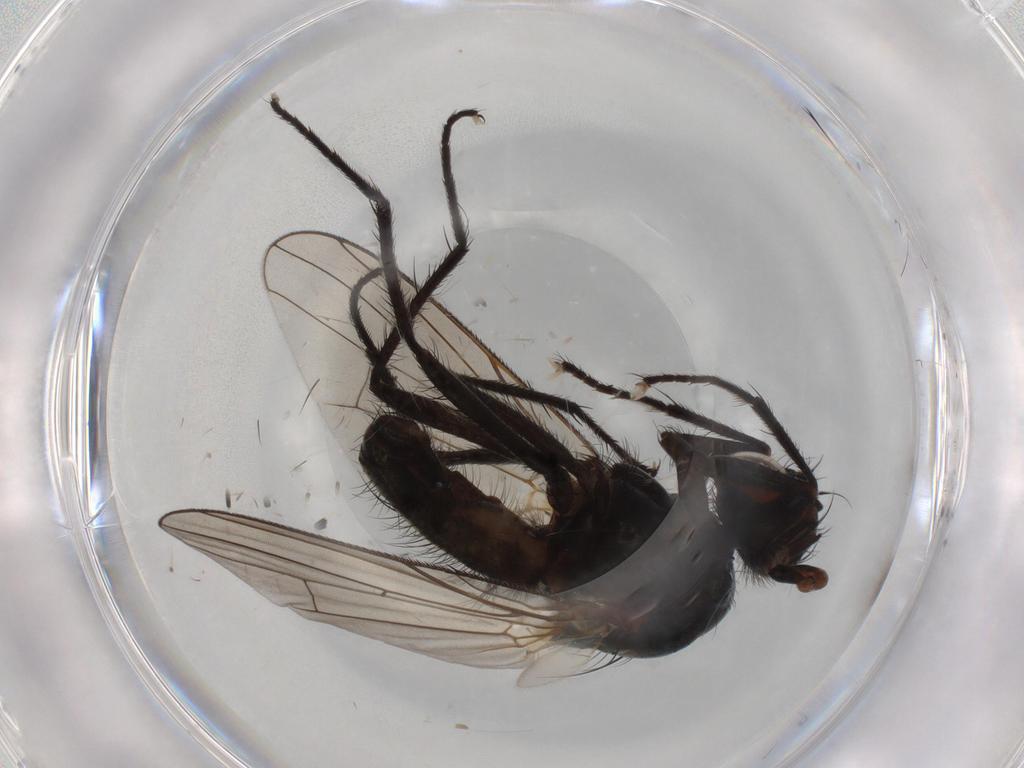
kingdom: Animalia
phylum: Arthropoda
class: Insecta
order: Diptera
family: Anthomyiidae
